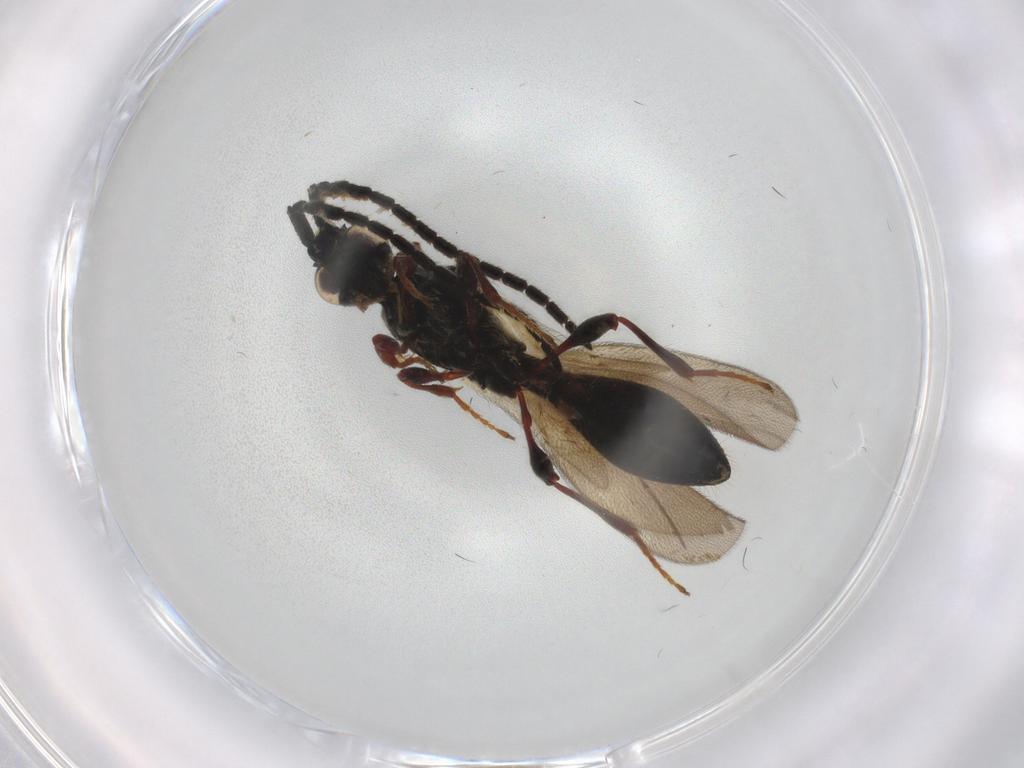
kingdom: Animalia
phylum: Arthropoda
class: Insecta
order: Hymenoptera
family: Diapriidae
